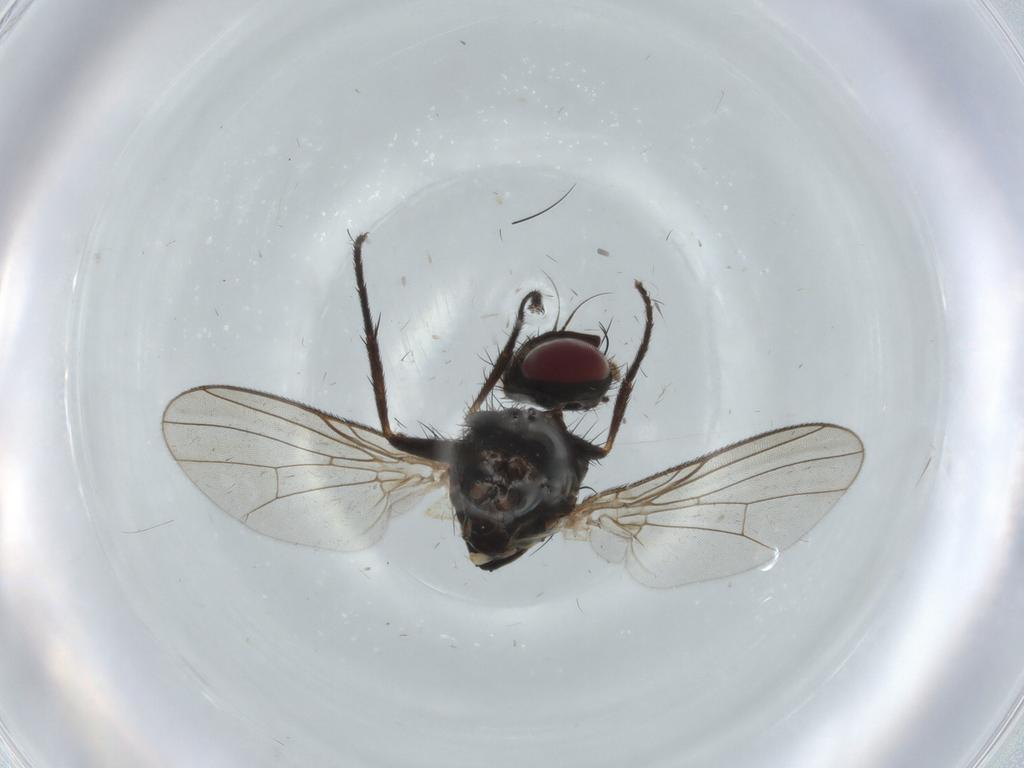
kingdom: Animalia
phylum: Arthropoda
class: Insecta
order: Diptera
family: Muscidae
